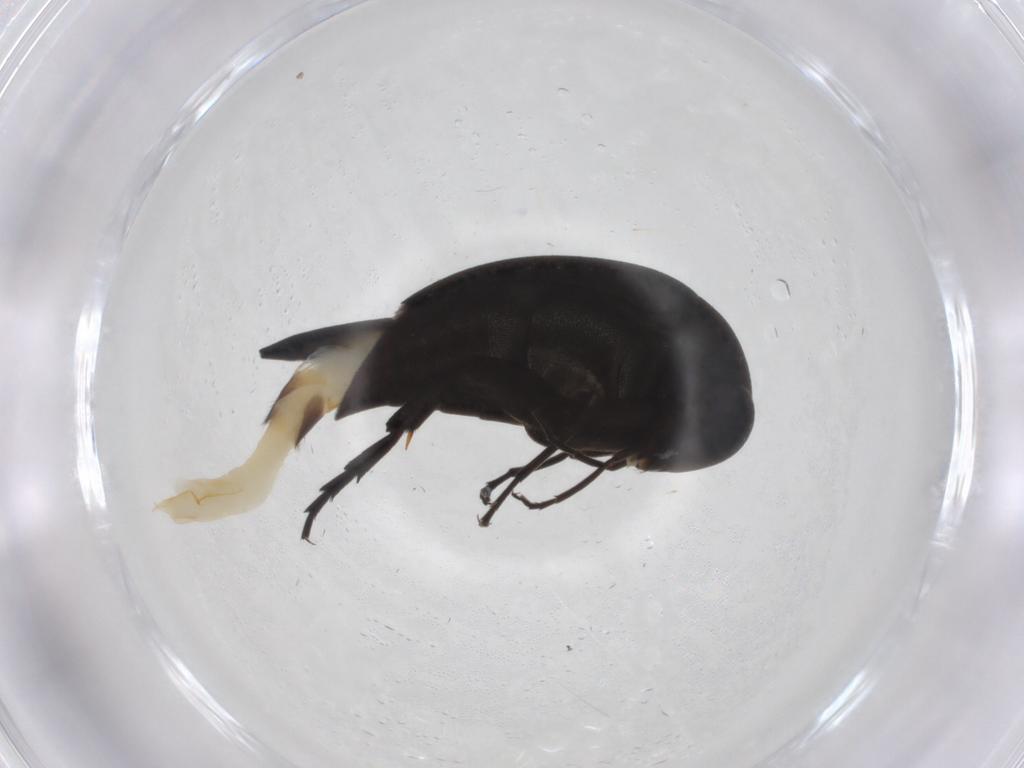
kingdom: Animalia
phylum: Arthropoda
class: Insecta
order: Coleoptera
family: Mordellidae
